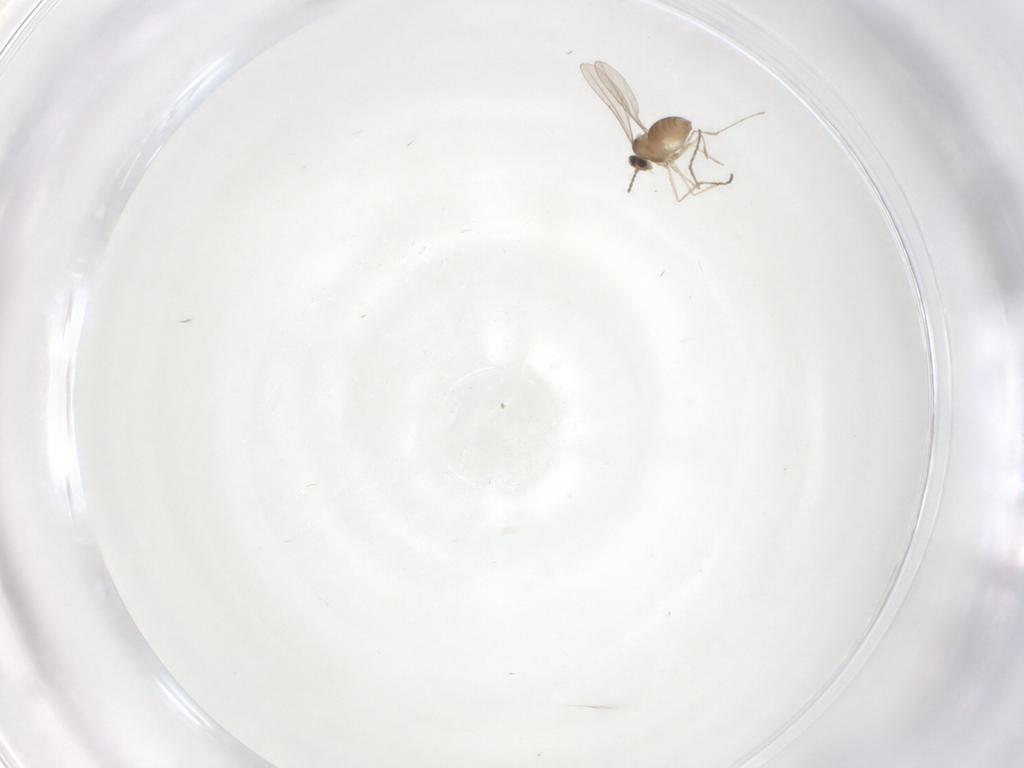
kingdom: Animalia
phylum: Arthropoda
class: Insecta
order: Diptera
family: Cecidomyiidae
